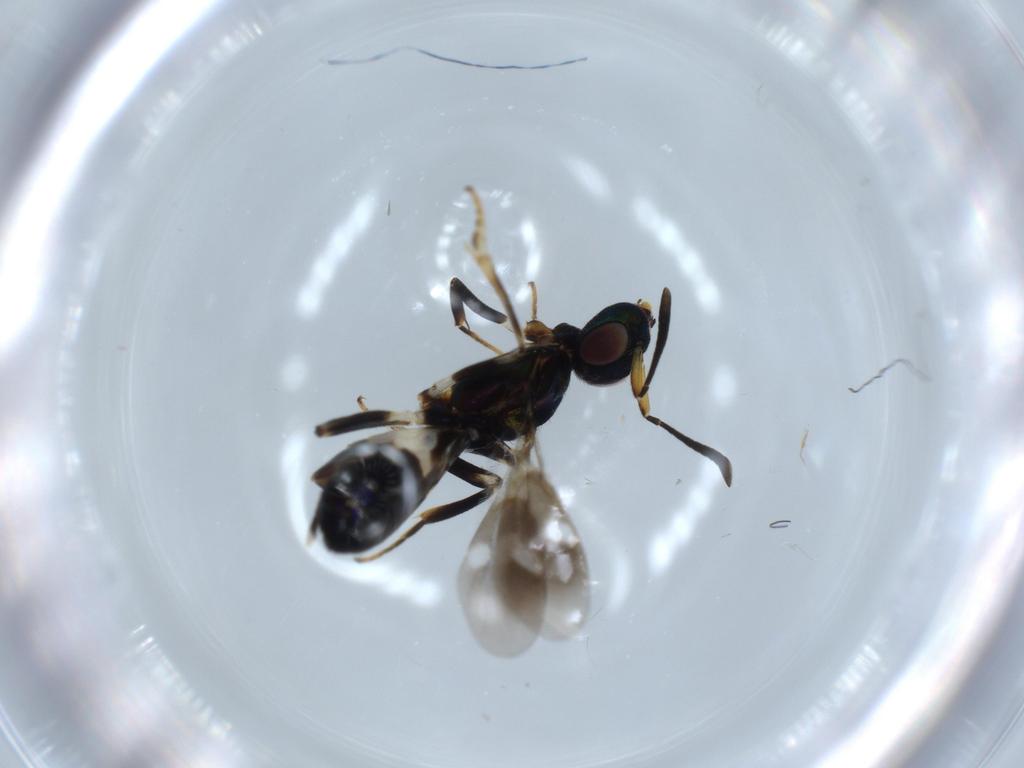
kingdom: Animalia
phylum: Arthropoda
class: Insecta
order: Hymenoptera
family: Eupelmidae
